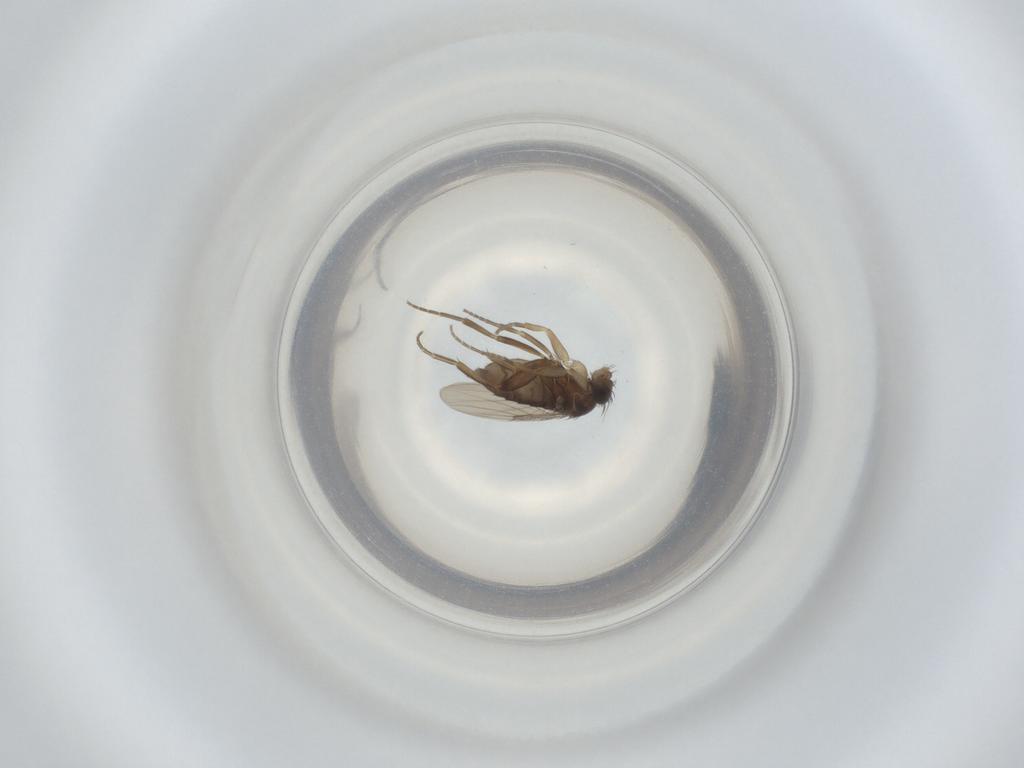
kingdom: Animalia
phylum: Arthropoda
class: Insecta
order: Diptera
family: Phoridae
